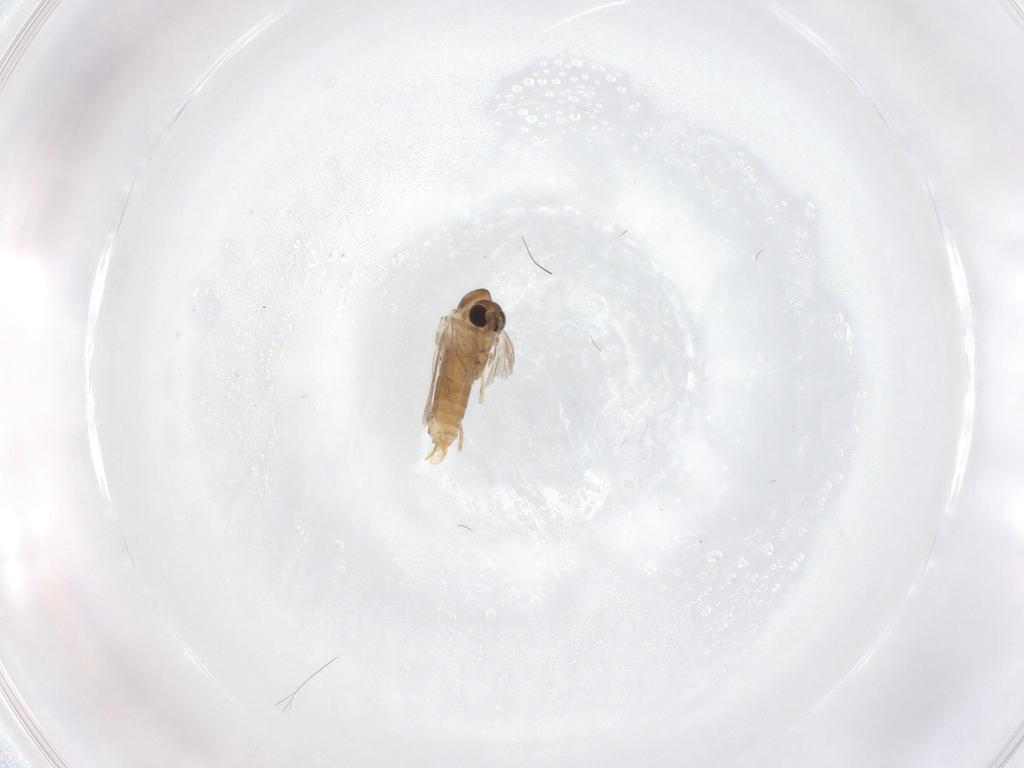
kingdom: Animalia
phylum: Arthropoda
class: Insecta
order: Diptera
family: Psychodidae
